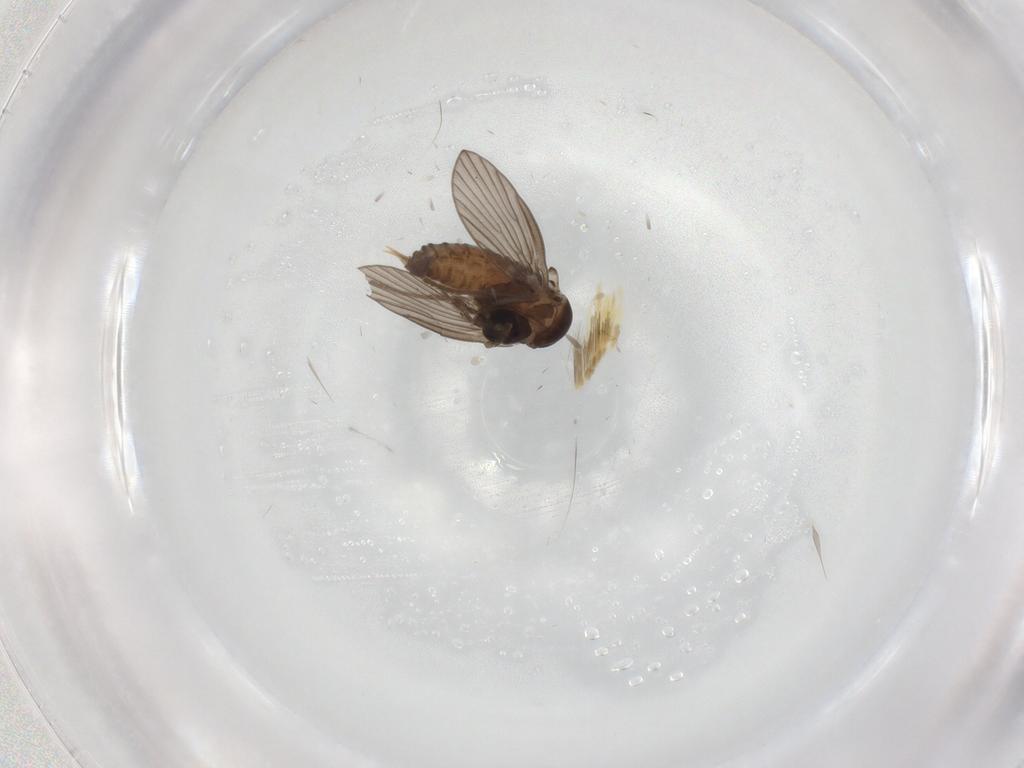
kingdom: Animalia
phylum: Arthropoda
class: Insecta
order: Diptera
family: Psychodidae
